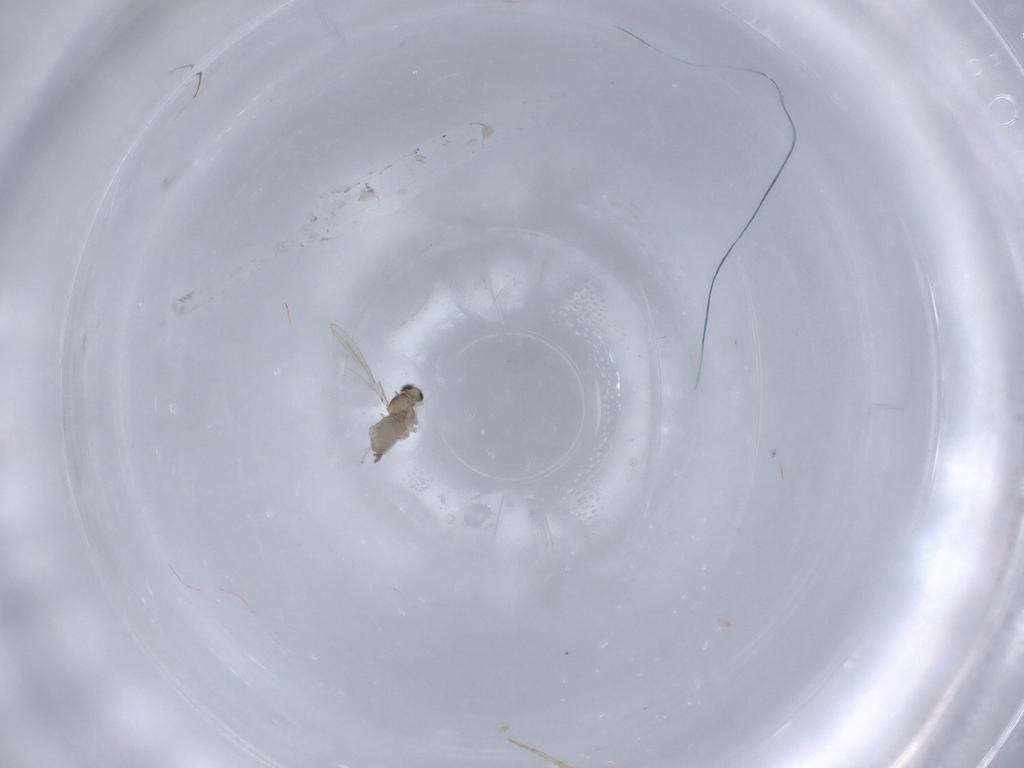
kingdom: Animalia
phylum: Arthropoda
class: Insecta
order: Diptera
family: Cecidomyiidae
